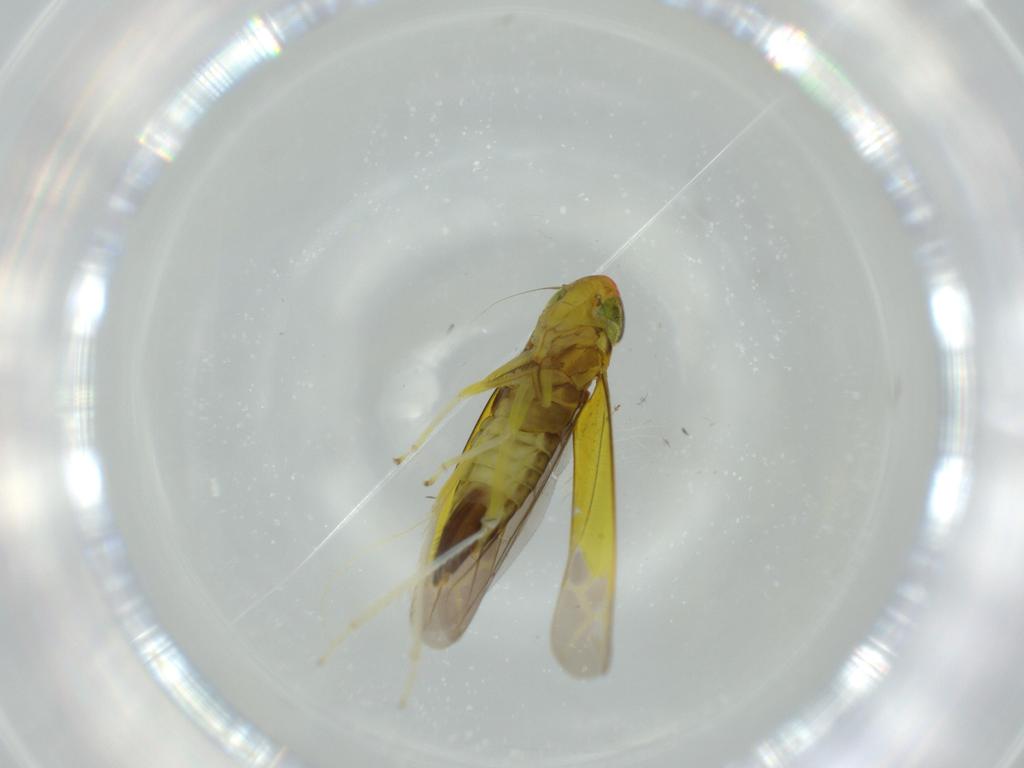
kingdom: Animalia
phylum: Arthropoda
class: Insecta
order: Hemiptera
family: Cicadellidae
